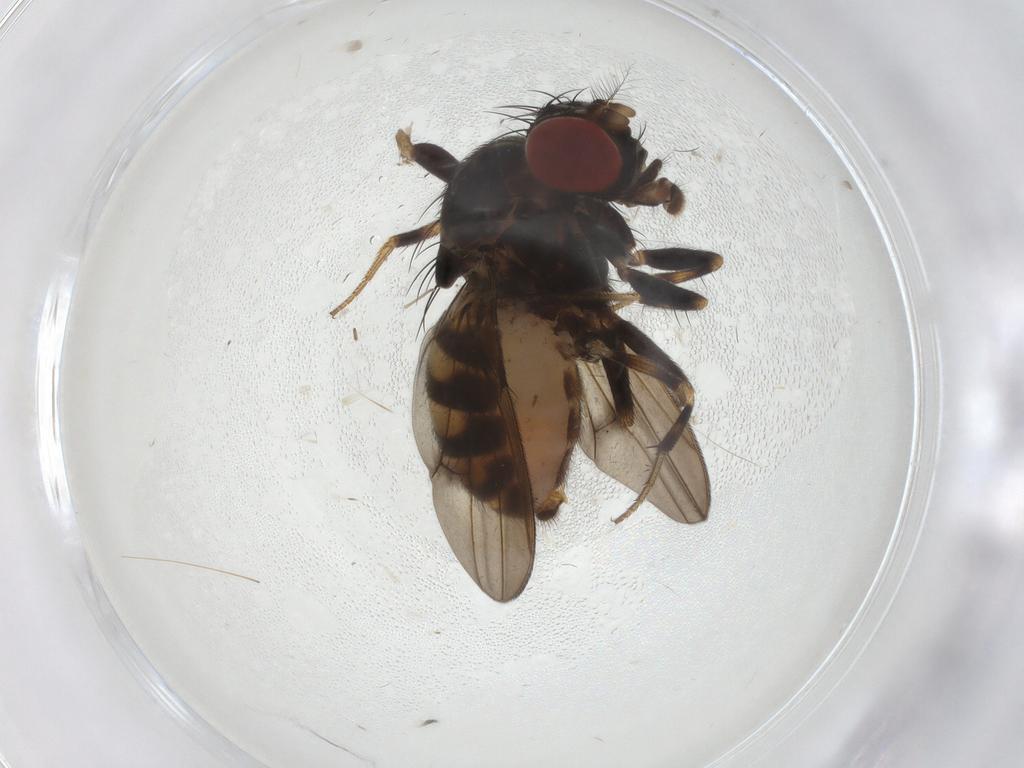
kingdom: Animalia
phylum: Arthropoda
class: Insecta
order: Diptera
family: Drosophilidae
